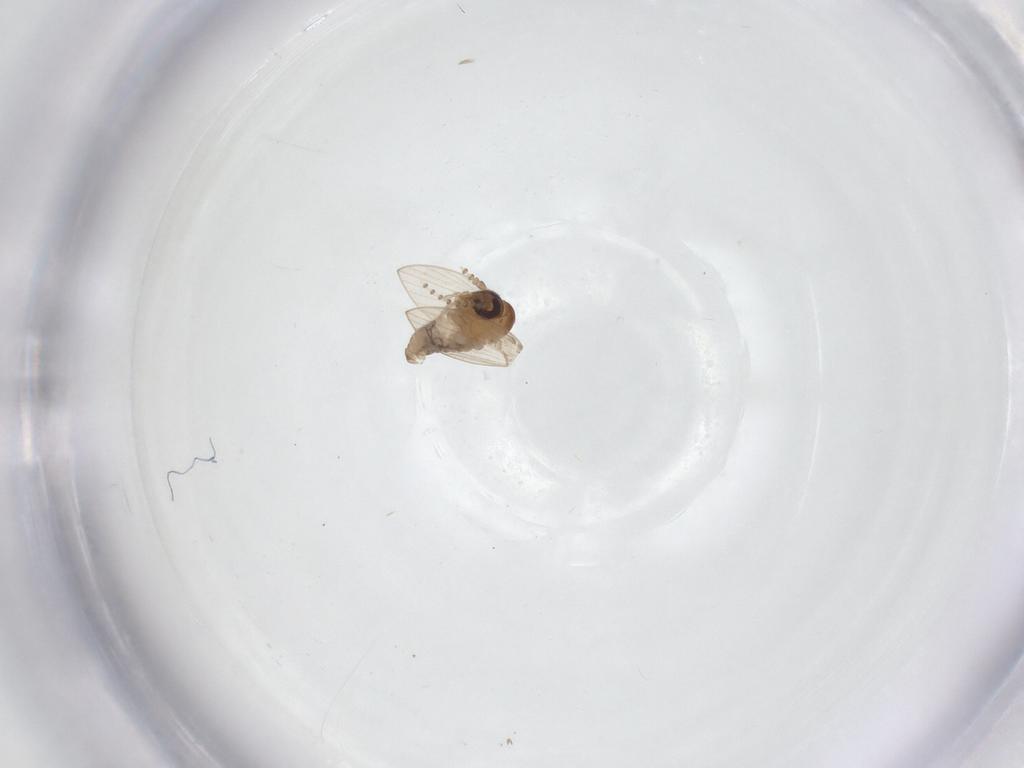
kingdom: Animalia
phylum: Arthropoda
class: Insecta
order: Diptera
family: Psychodidae
